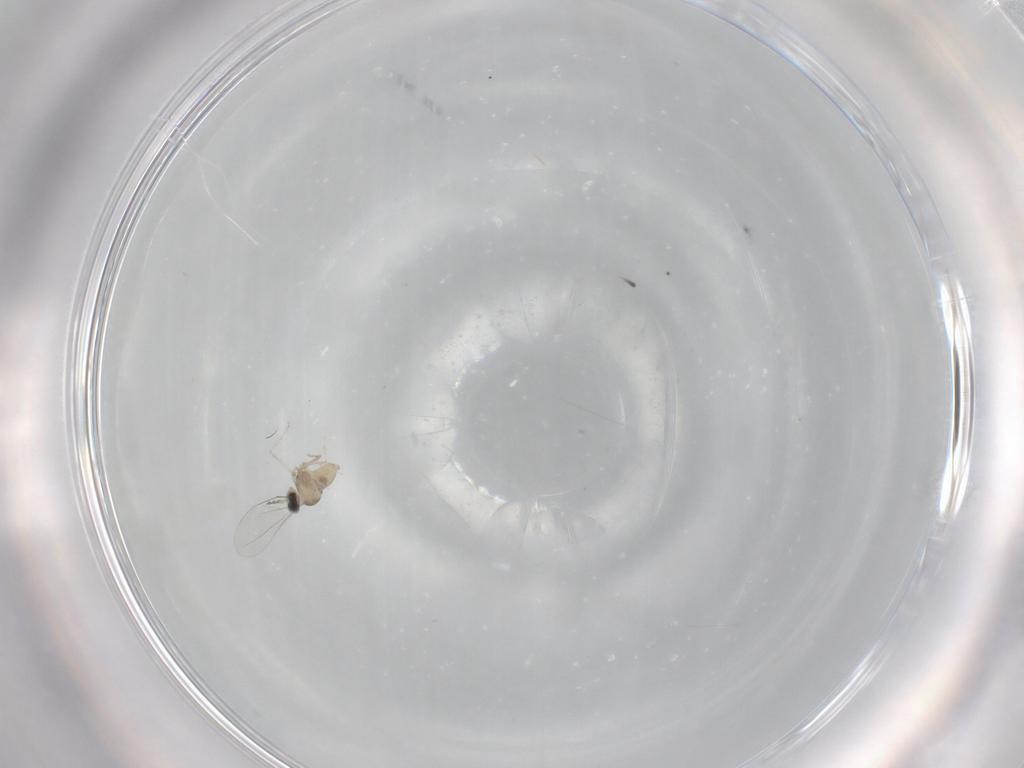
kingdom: Animalia
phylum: Arthropoda
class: Insecta
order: Diptera
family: Cecidomyiidae
